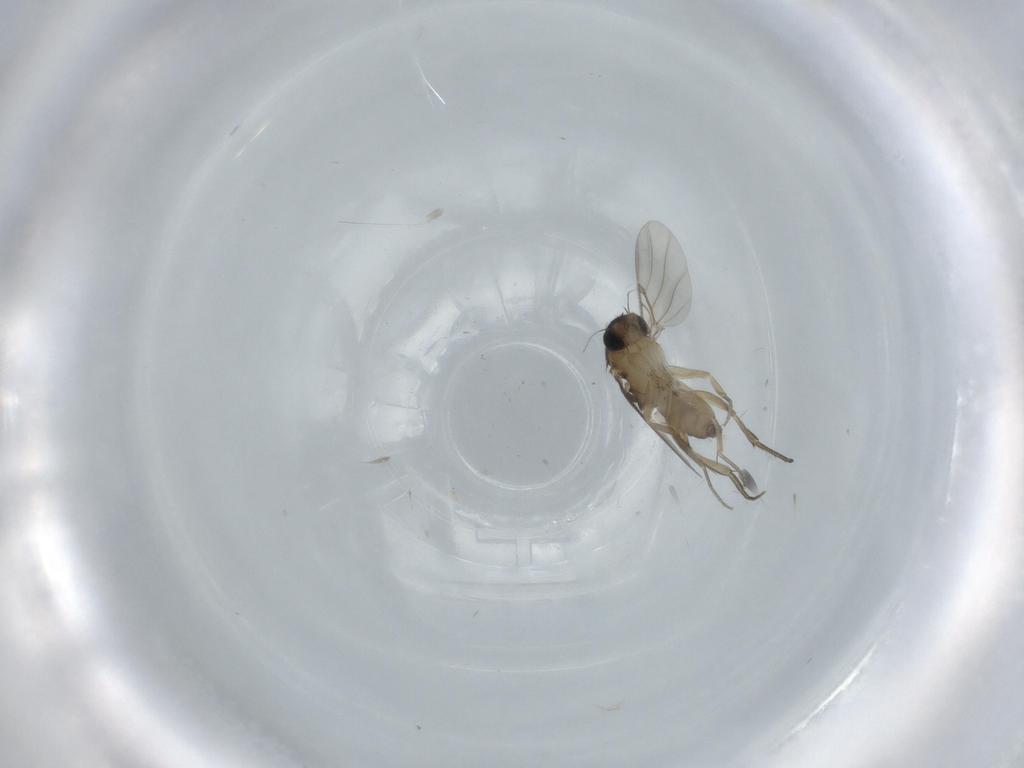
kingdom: Animalia
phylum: Arthropoda
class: Insecta
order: Diptera
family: Phoridae
